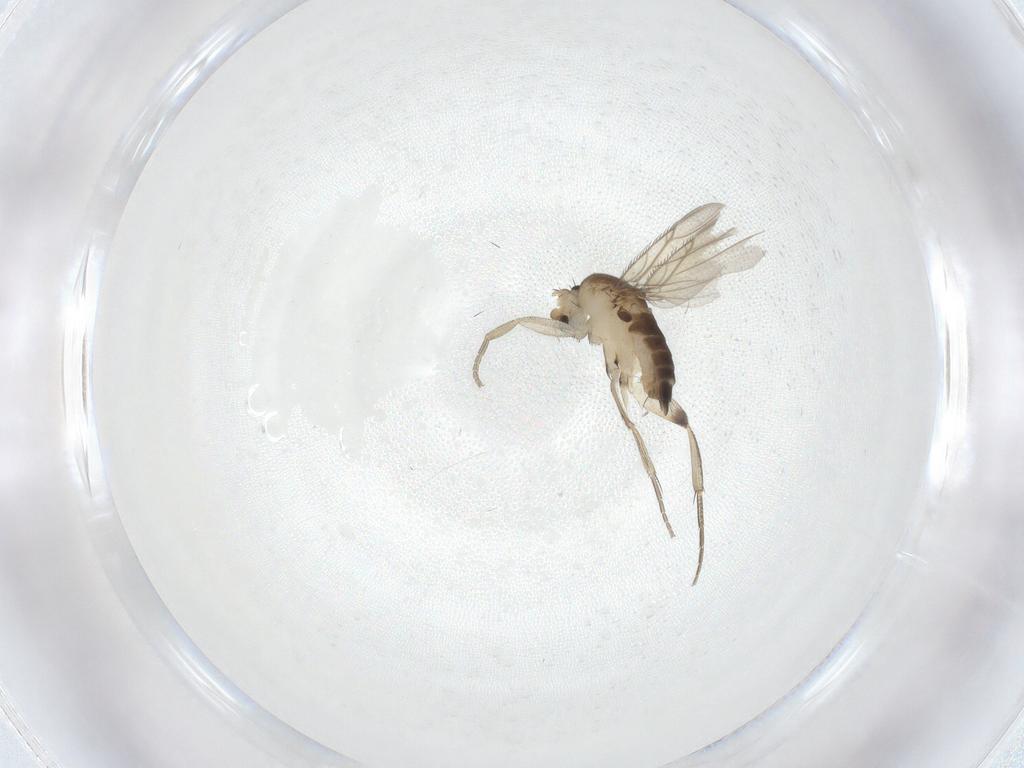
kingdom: Animalia
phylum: Arthropoda
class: Insecta
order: Diptera
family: Phoridae
